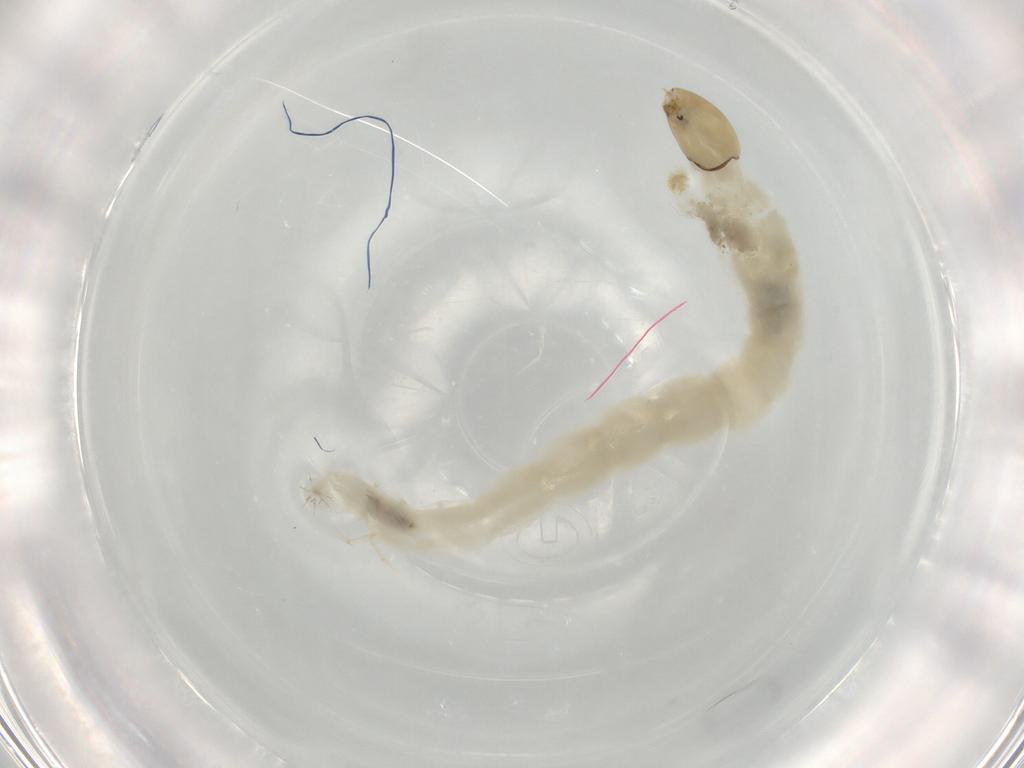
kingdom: Animalia
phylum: Arthropoda
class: Insecta
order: Diptera
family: Chironomidae
